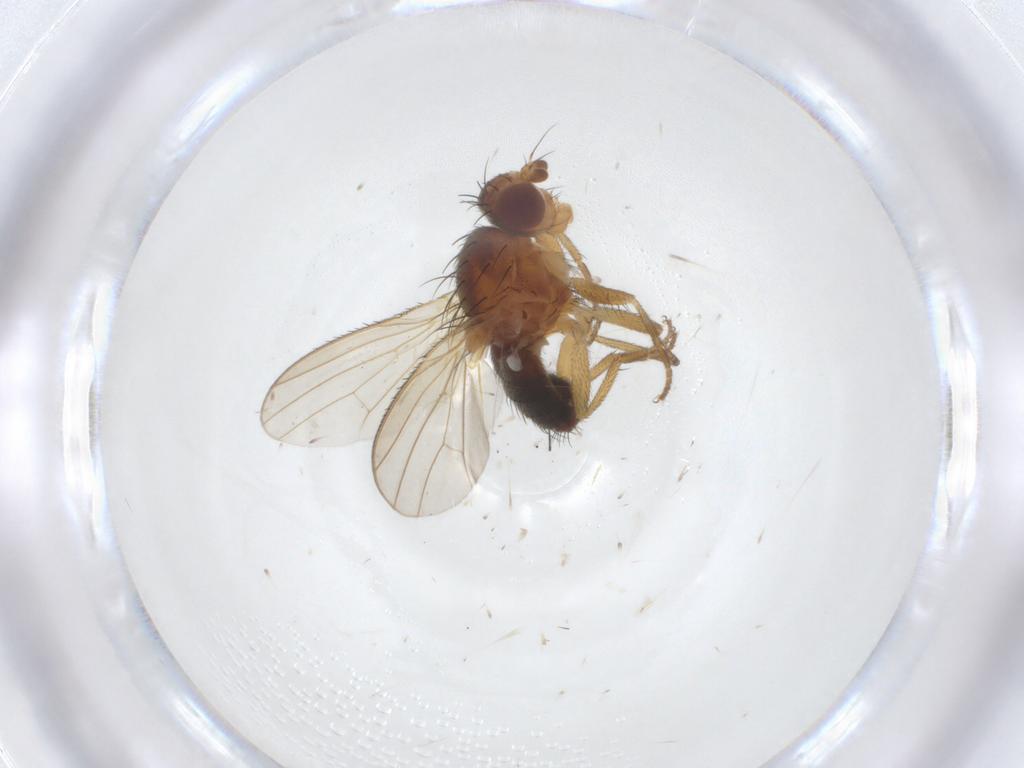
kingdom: Animalia
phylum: Arthropoda
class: Insecta
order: Diptera
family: Heleomyzidae
